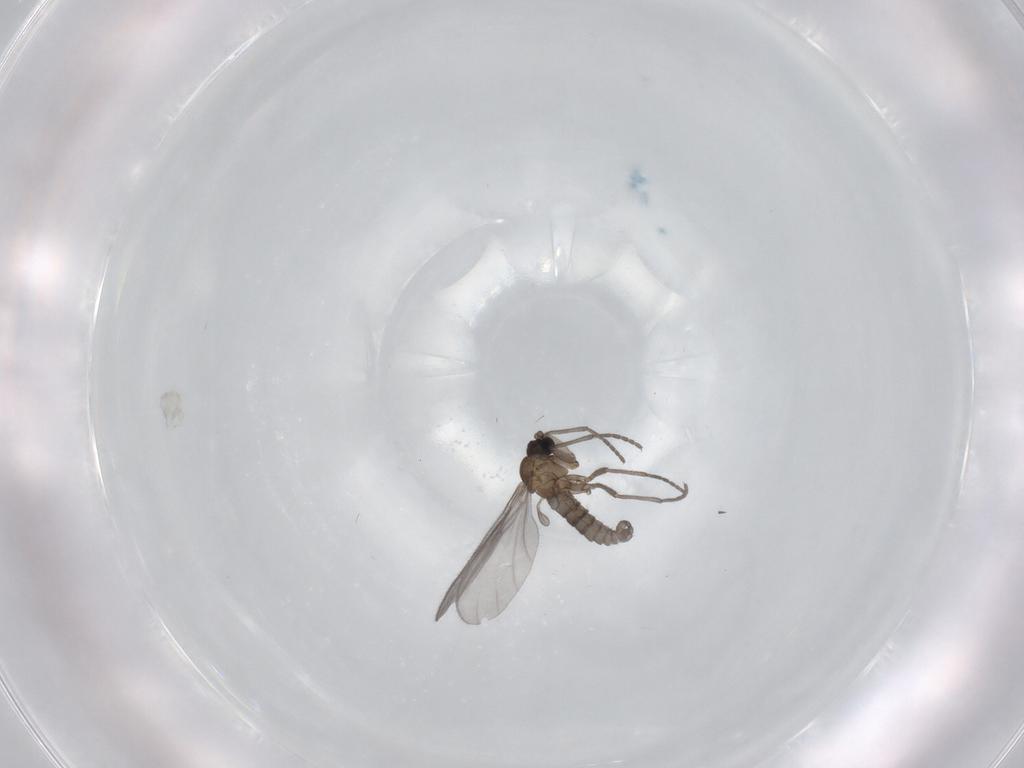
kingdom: Animalia
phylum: Arthropoda
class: Insecta
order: Diptera
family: Sciaridae
